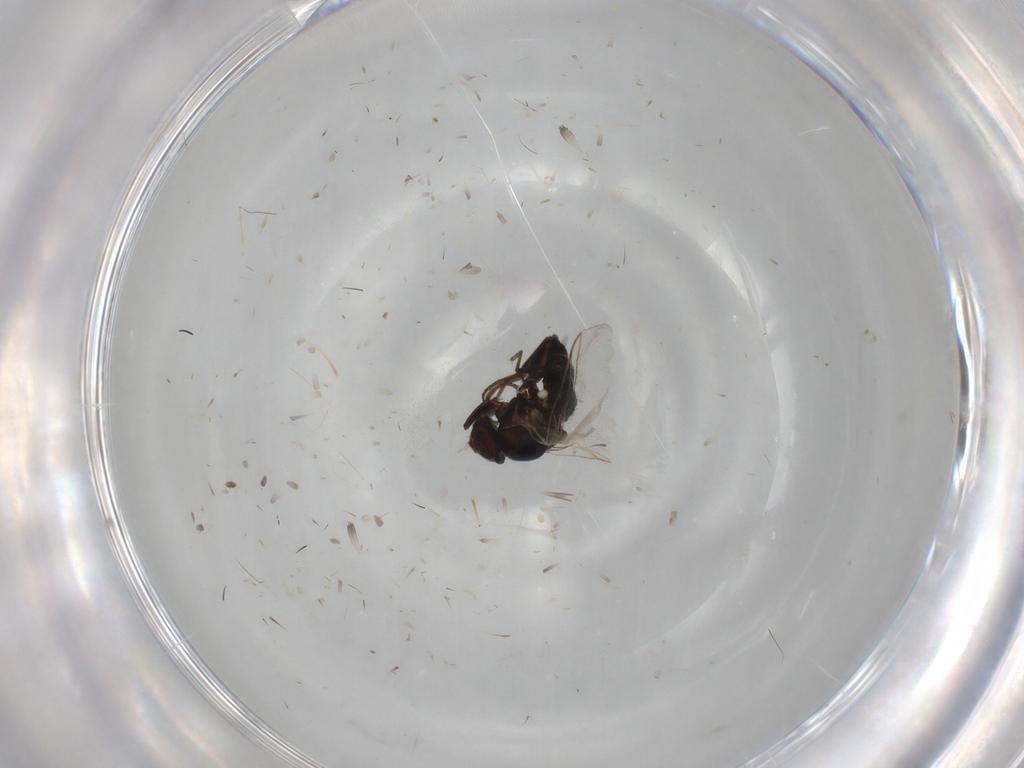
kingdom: Animalia
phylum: Arthropoda
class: Insecta
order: Diptera
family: Agromyzidae
